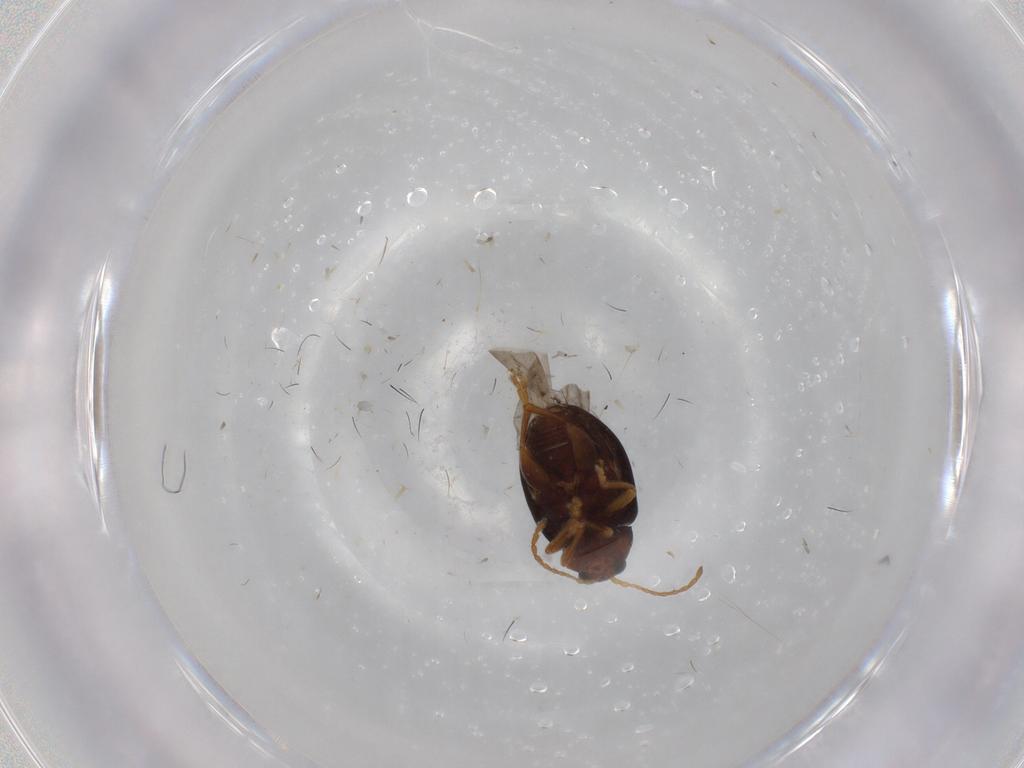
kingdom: Animalia
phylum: Arthropoda
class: Insecta
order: Coleoptera
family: Chrysomelidae
